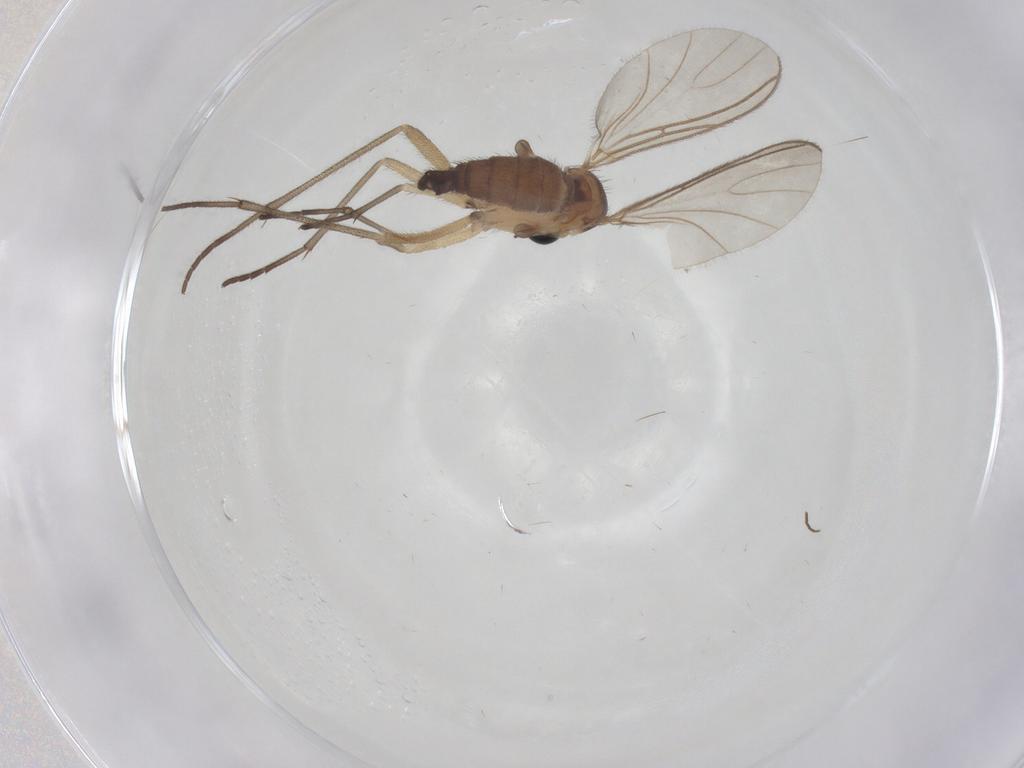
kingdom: Animalia
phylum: Arthropoda
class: Insecta
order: Diptera
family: Sciaridae
